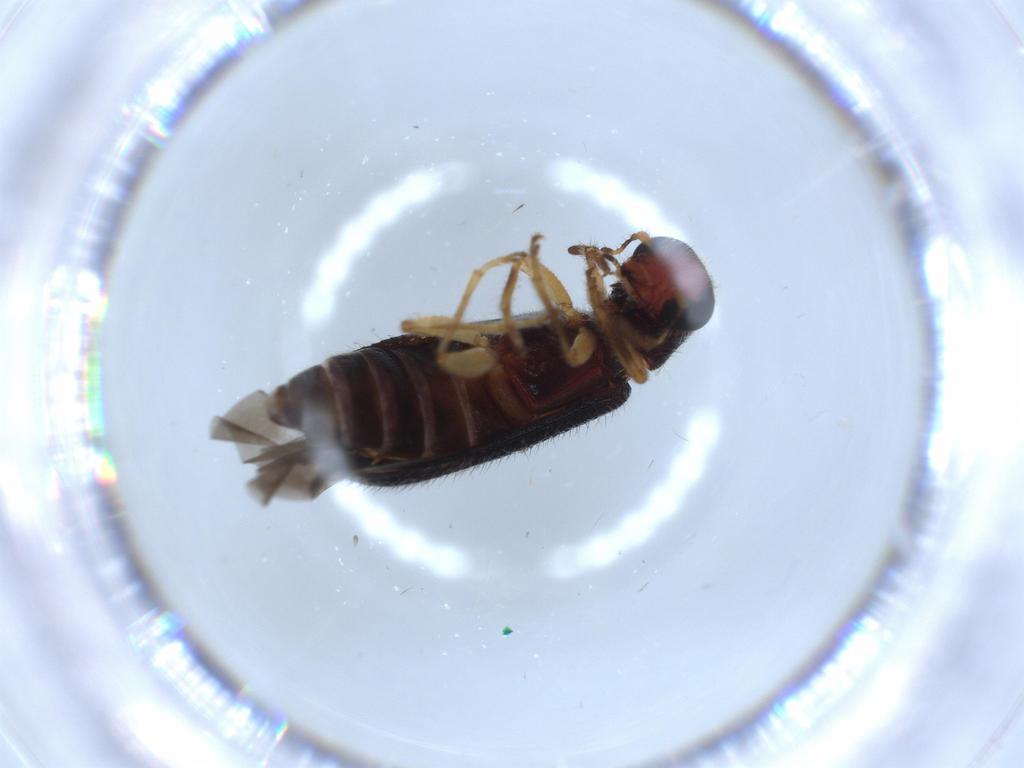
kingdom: Animalia
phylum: Arthropoda
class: Insecta
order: Coleoptera
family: Cleridae
